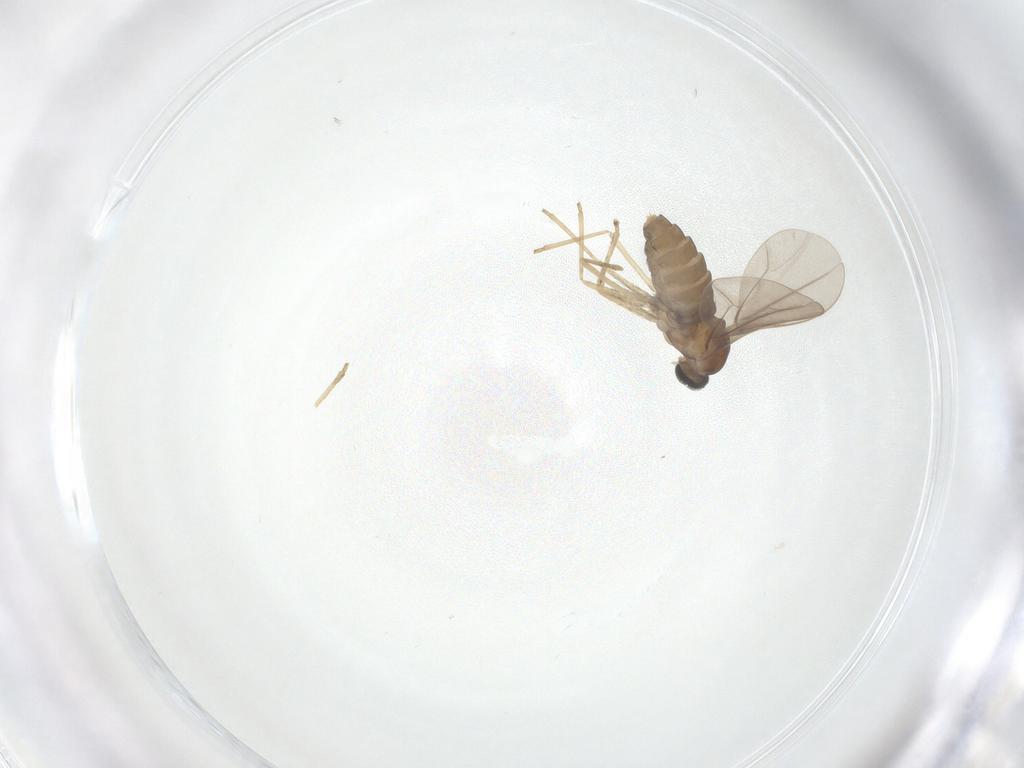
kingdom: Animalia
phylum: Arthropoda
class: Insecta
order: Diptera
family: Cecidomyiidae
